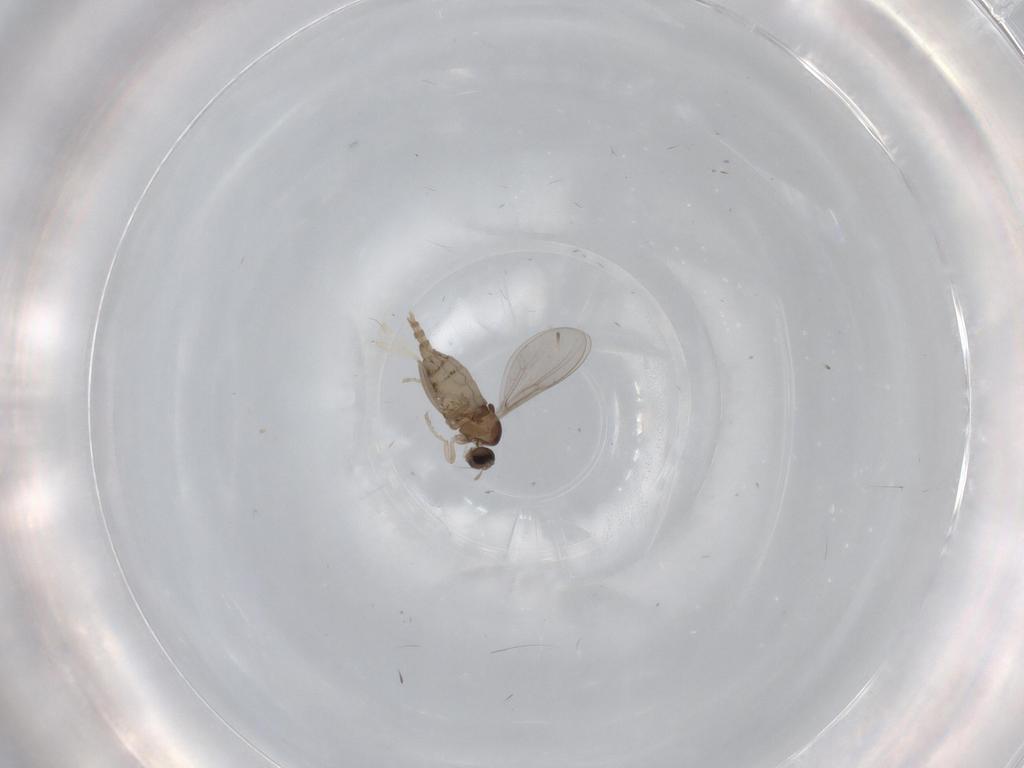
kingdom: Animalia
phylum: Arthropoda
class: Insecta
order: Diptera
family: Cecidomyiidae
